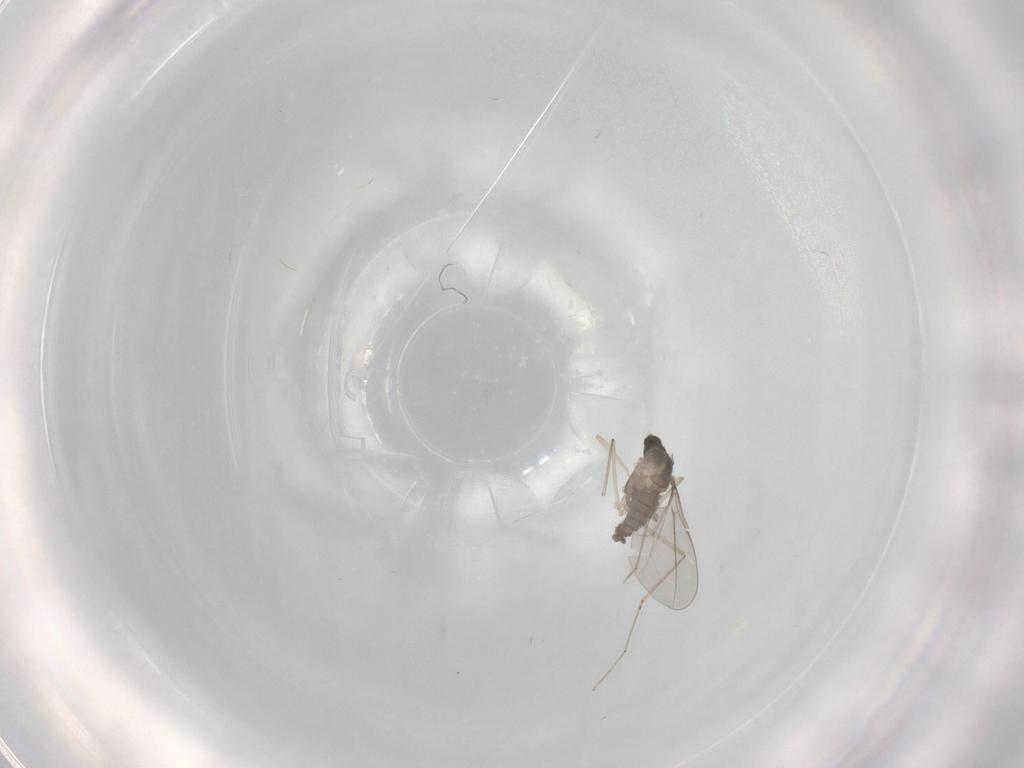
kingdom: Animalia
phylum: Arthropoda
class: Insecta
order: Diptera
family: Cecidomyiidae
